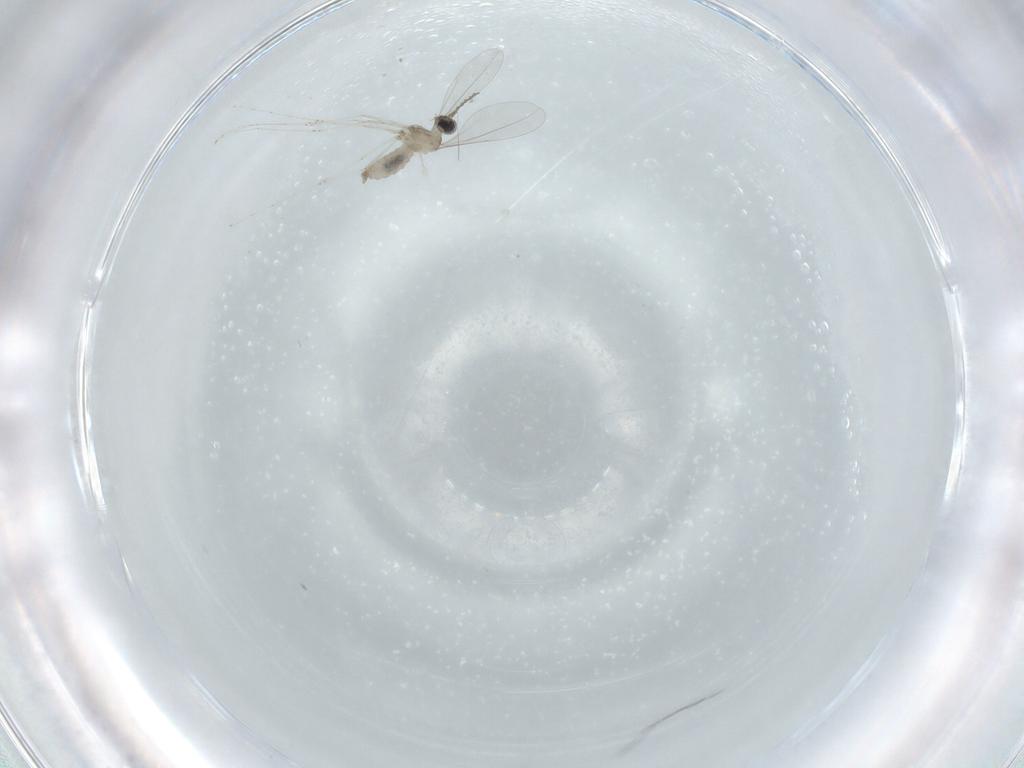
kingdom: Animalia
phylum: Arthropoda
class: Insecta
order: Diptera
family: Cecidomyiidae
